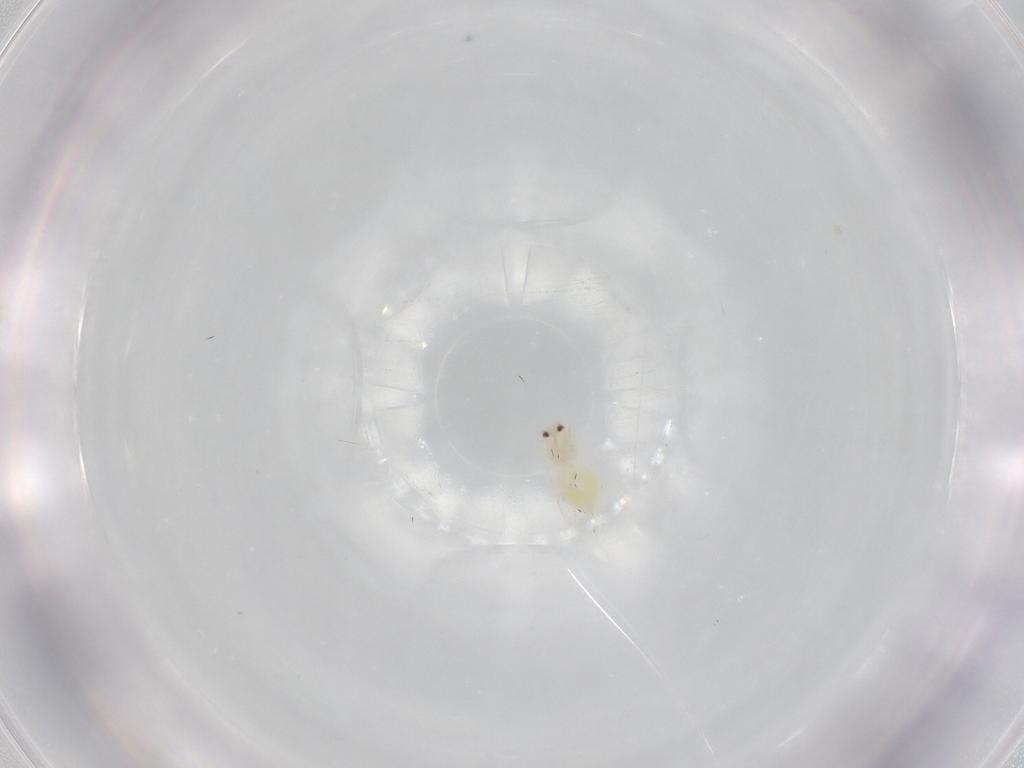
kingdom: Animalia
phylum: Arthropoda
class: Insecta
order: Hemiptera
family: Aleyrodidae
